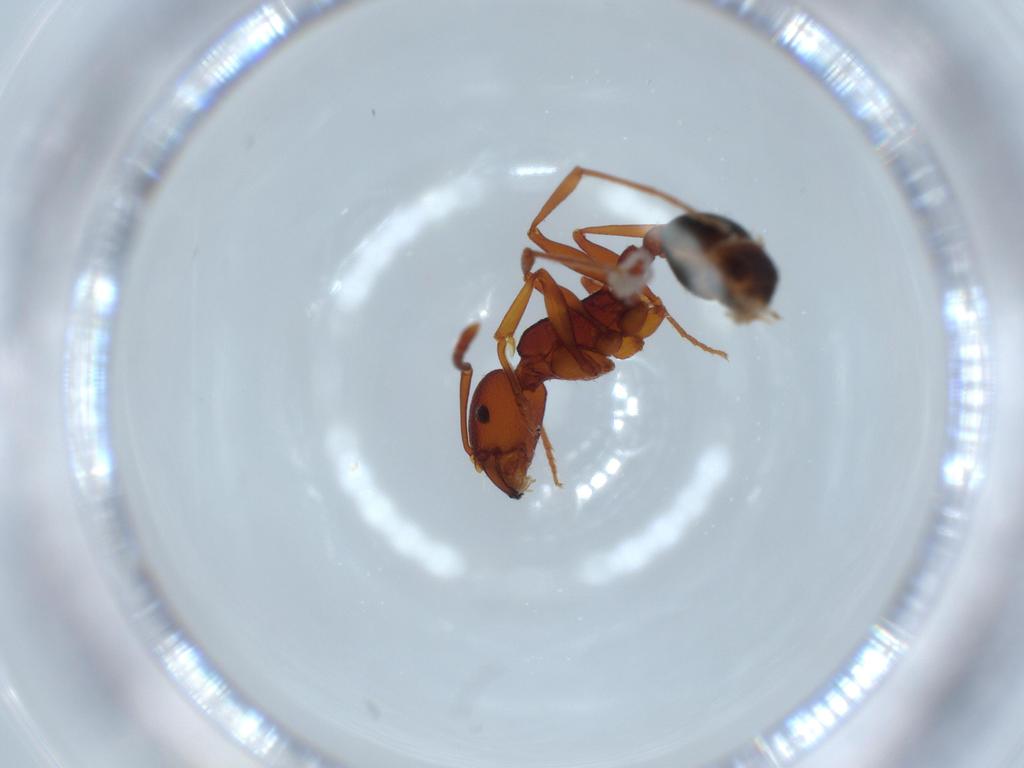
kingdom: Animalia
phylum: Arthropoda
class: Insecta
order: Hymenoptera
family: Formicidae
